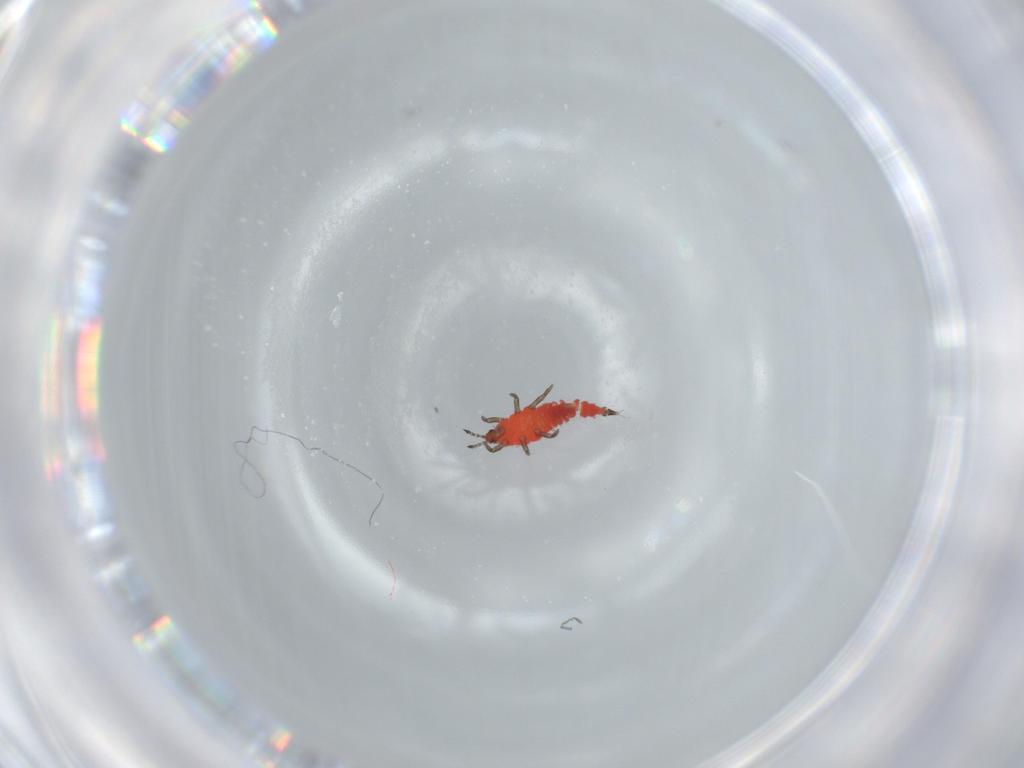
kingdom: Animalia
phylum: Arthropoda
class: Insecta
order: Thysanoptera
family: Phlaeothripidae
